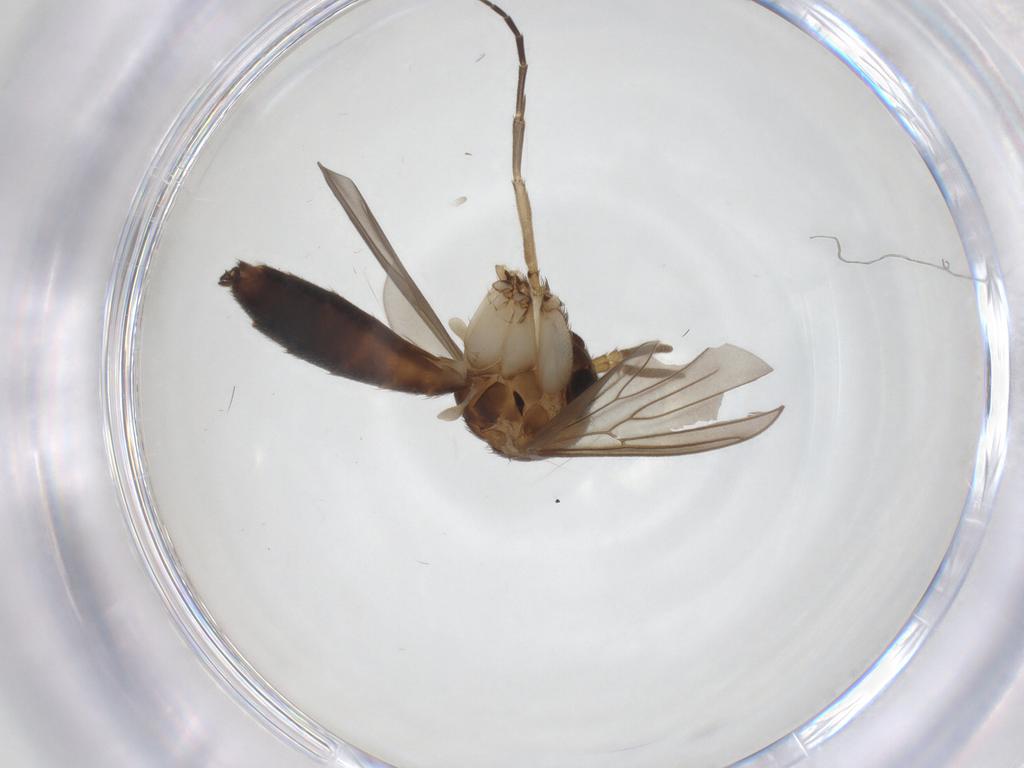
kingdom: Animalia
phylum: Arthropoda
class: Insecta
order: Diptera
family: Mycetophilidae
